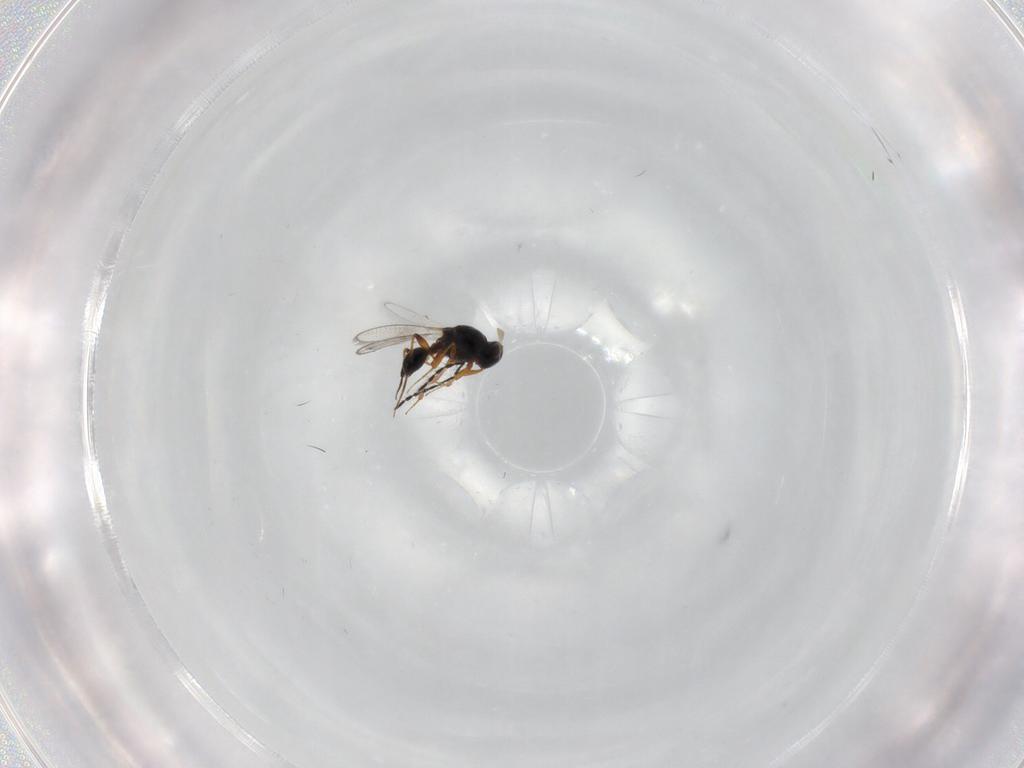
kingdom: Animalia
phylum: Arthropoda
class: Insecta
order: Hymenoptera
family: Platygastridae
